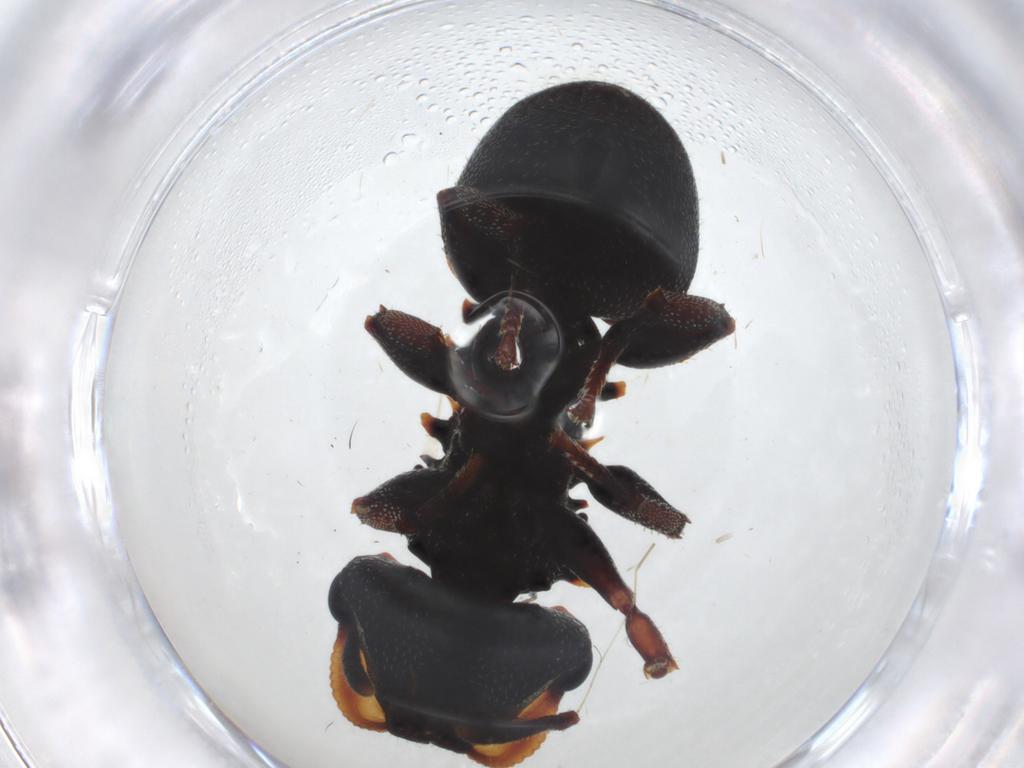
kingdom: Animalia
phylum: Arthropoda
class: Insecta
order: Hymenoptera
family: Formicidae
